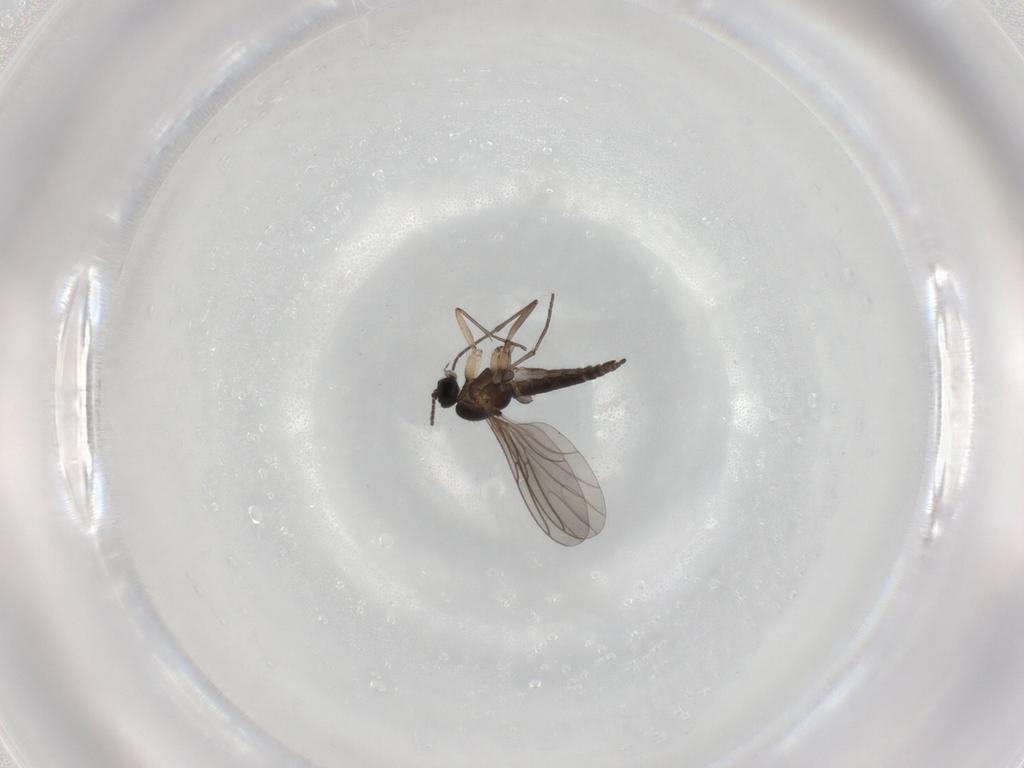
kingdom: Animalia
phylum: Arthropoda
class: Insecta
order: Diptera
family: Sciaridae
